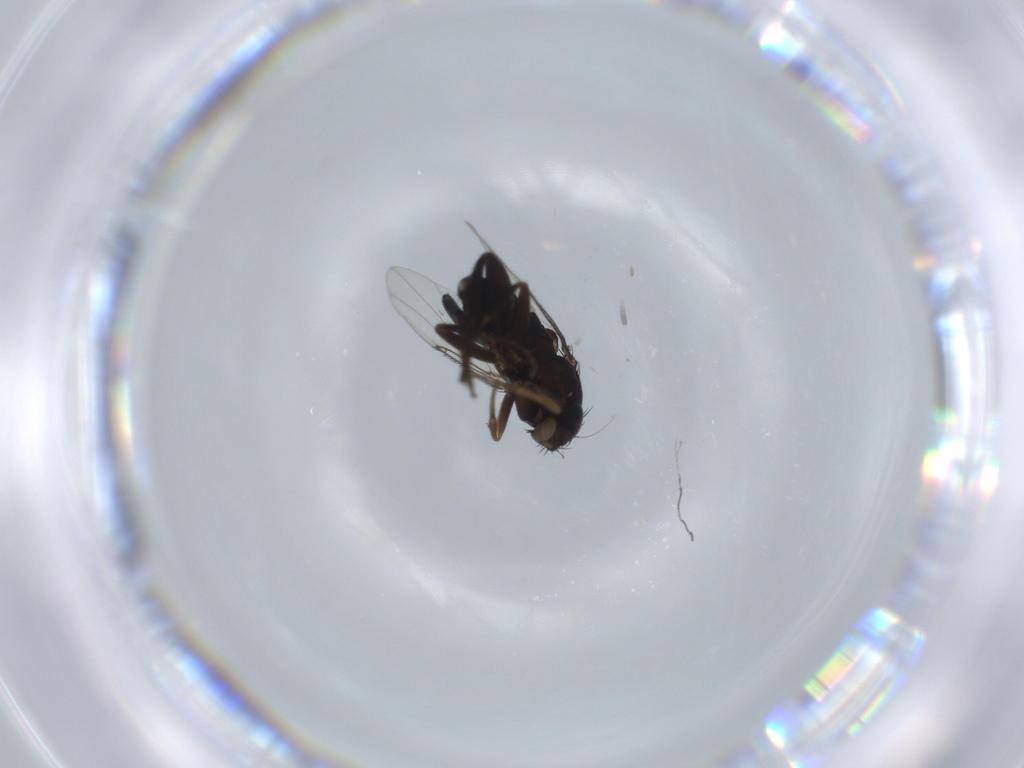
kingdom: Animalia
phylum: Arthropoda
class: Insecta
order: Diptera
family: Phoridae
